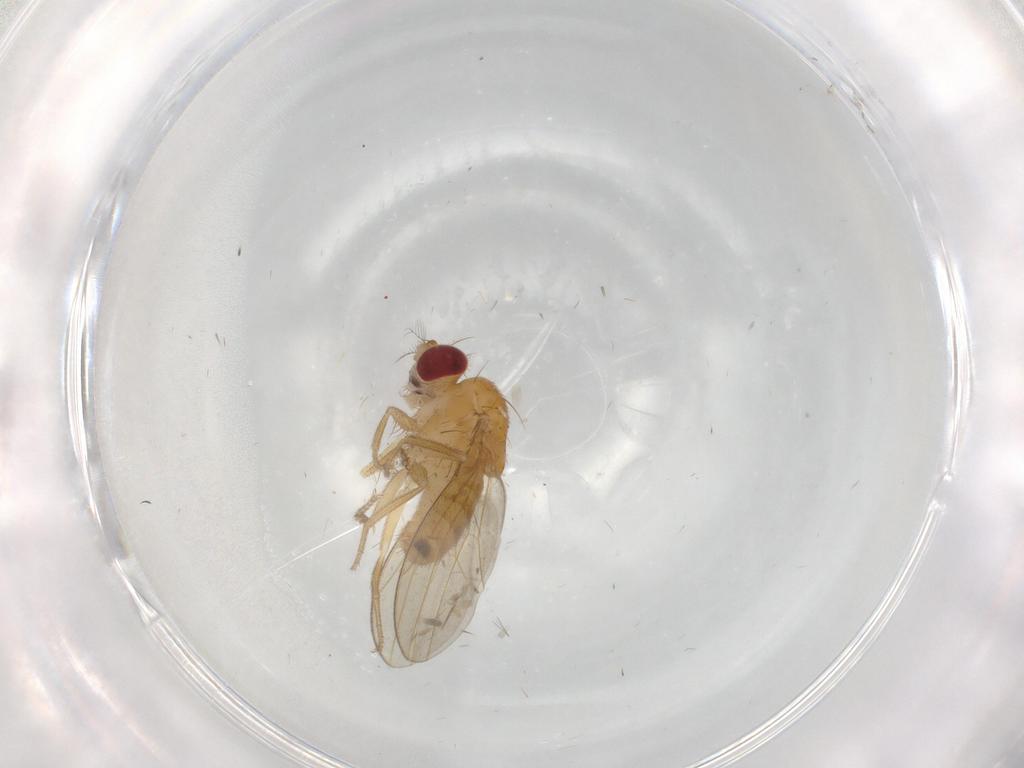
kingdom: Animalia
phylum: Arthropoda
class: Insecta
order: Diptera
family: Drosophilidae
